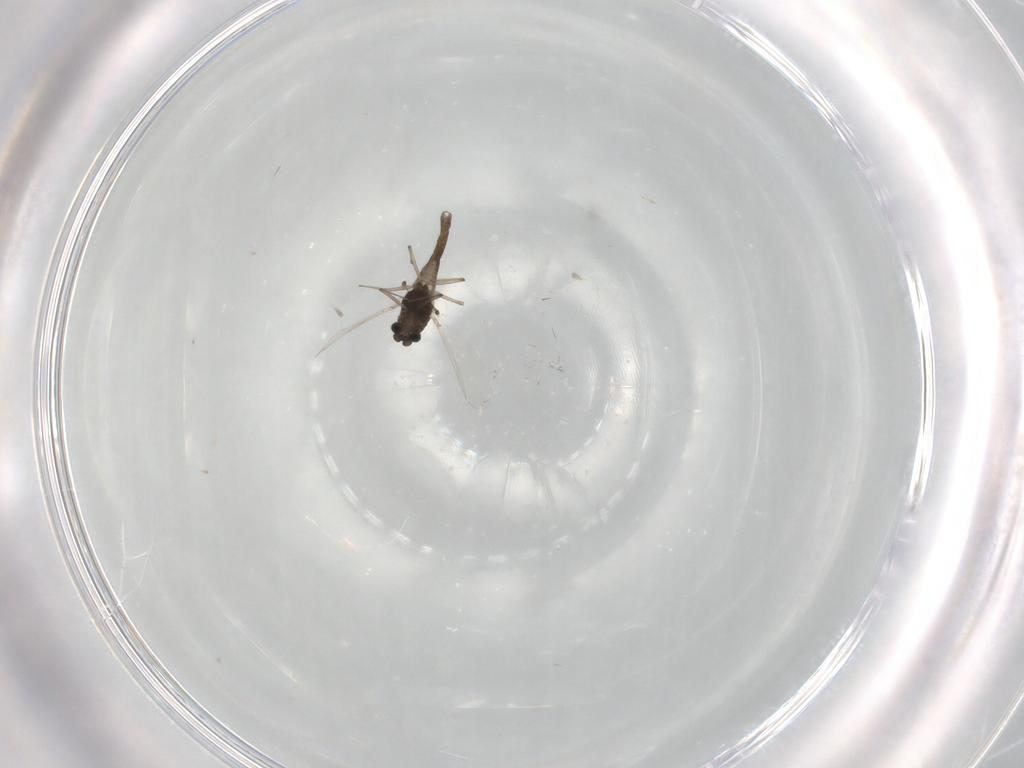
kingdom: Animalia
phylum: Arthropoda
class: Insecta
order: Diptera
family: Chironomidae
